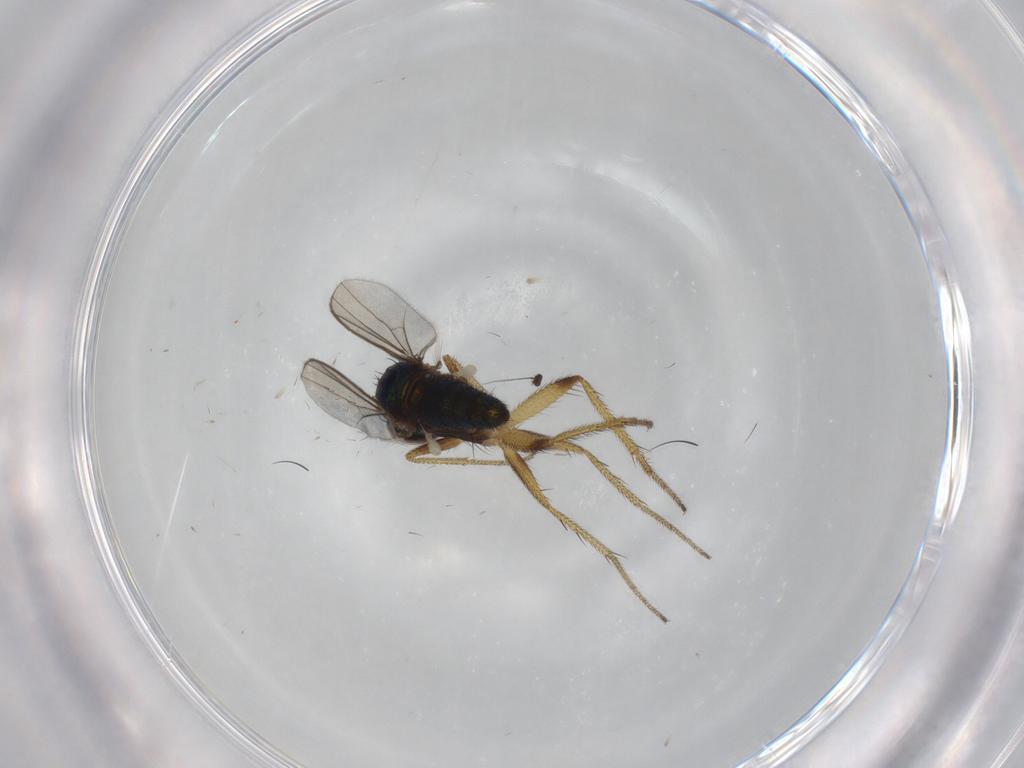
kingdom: Animalia
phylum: Arthropoda
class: Insecta
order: Diptera
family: Dolichopodidae
